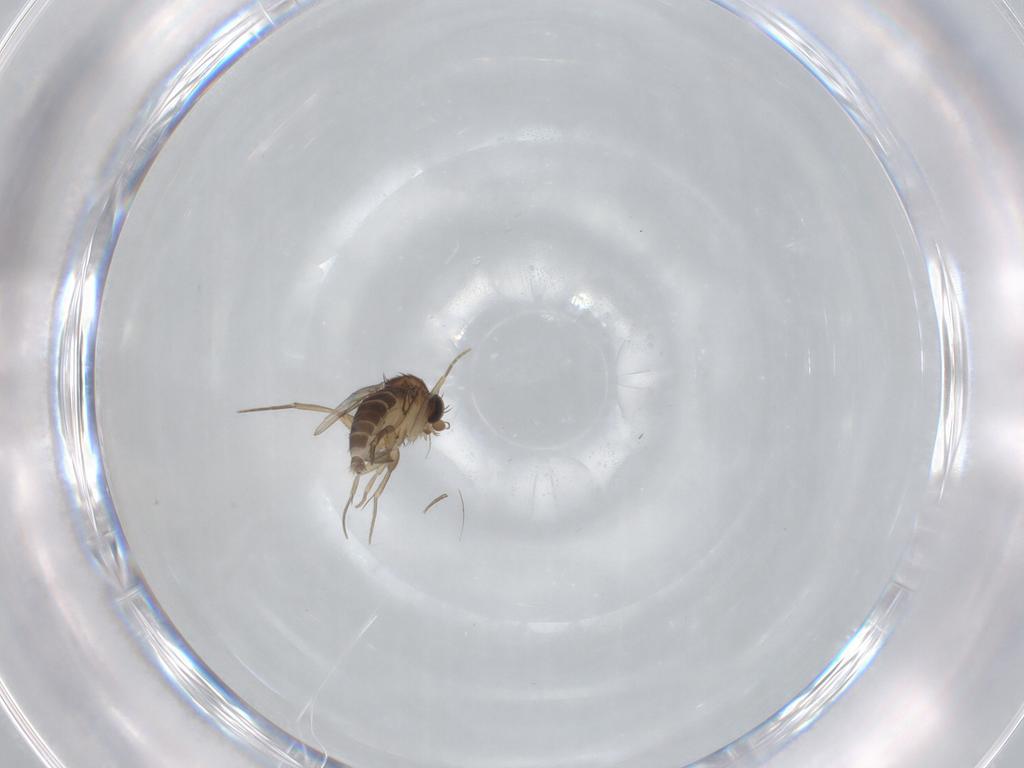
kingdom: Animalia
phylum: Arthropoda
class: Insecta
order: Diptera
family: Phoridae
